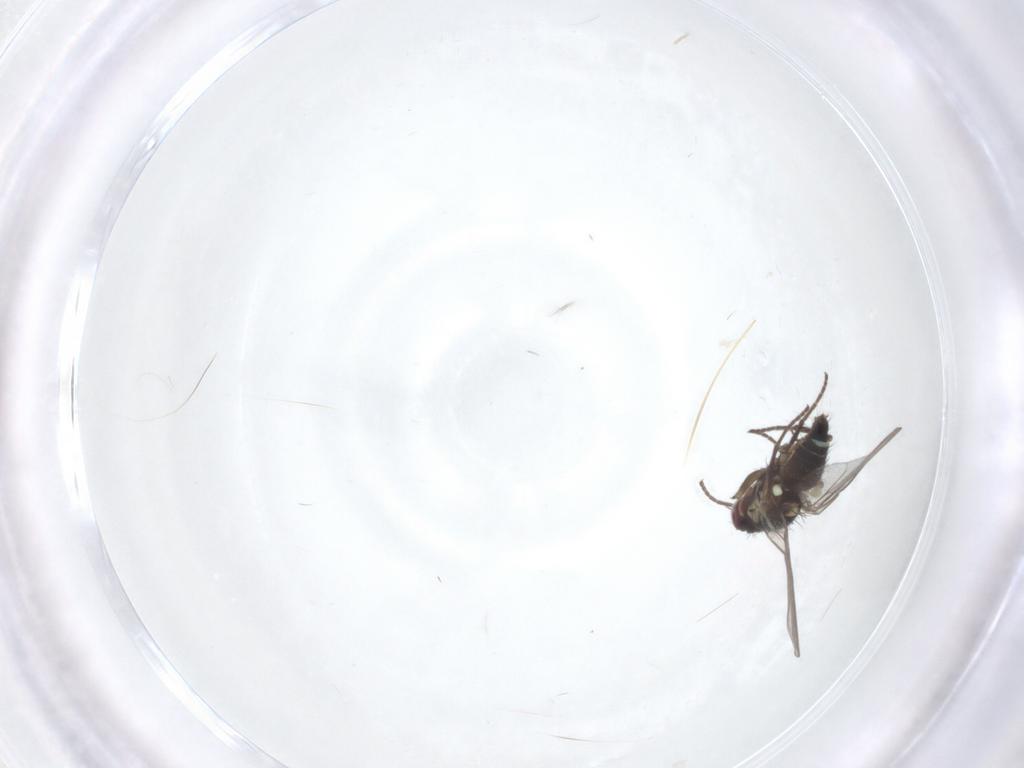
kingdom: Animalia
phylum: Arthropoda
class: Insecta
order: Diptera
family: Agromyzidae
